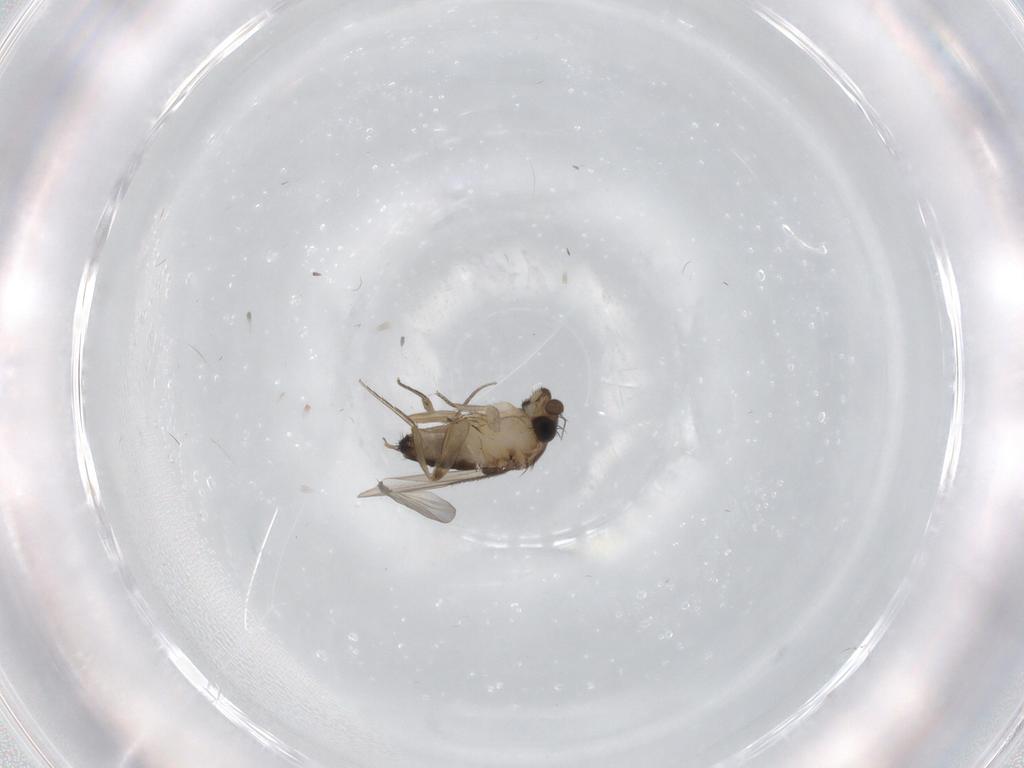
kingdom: Animalia
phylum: Arthropoda
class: Insecta
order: Diptera
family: Phoridae
